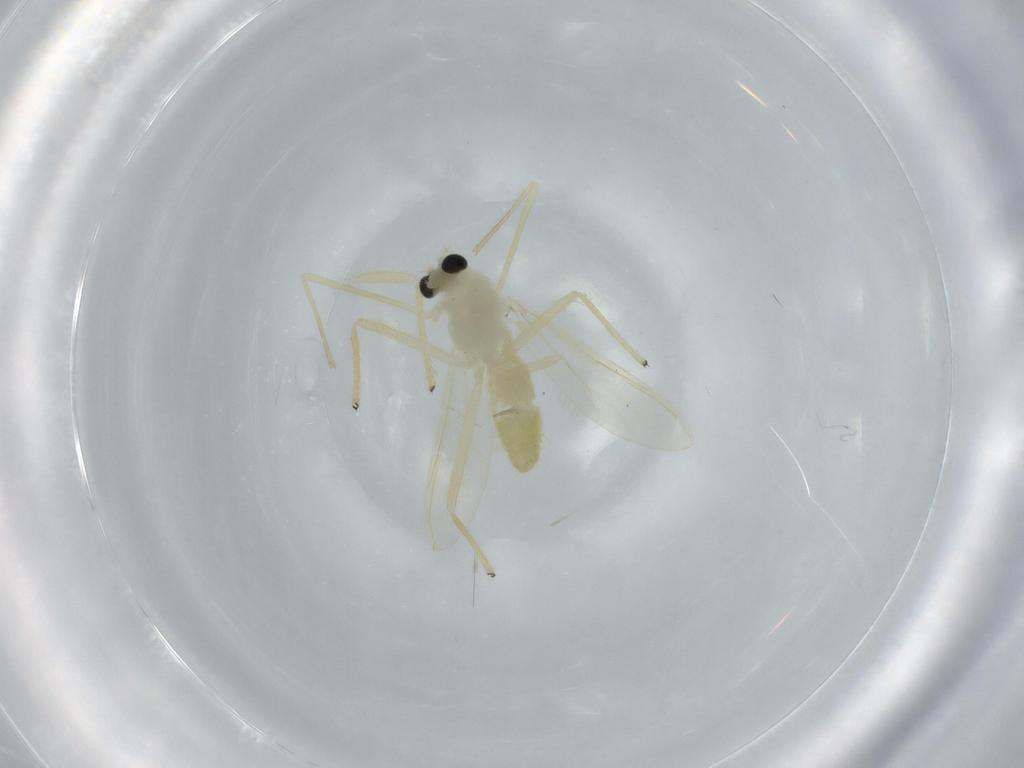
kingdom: Animalia
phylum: Arthropoda
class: Insecta
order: Diptera
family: Chironomidae
